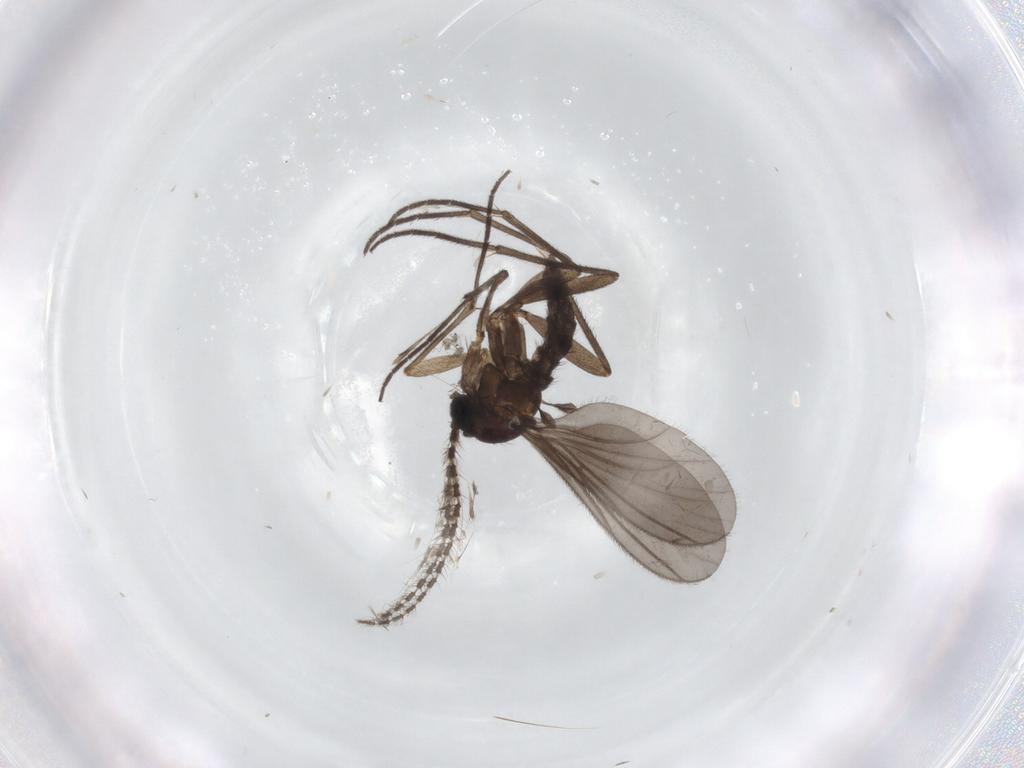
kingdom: Animalia
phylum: Arthropoda
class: Insecta
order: Diptera
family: Sciaridae
